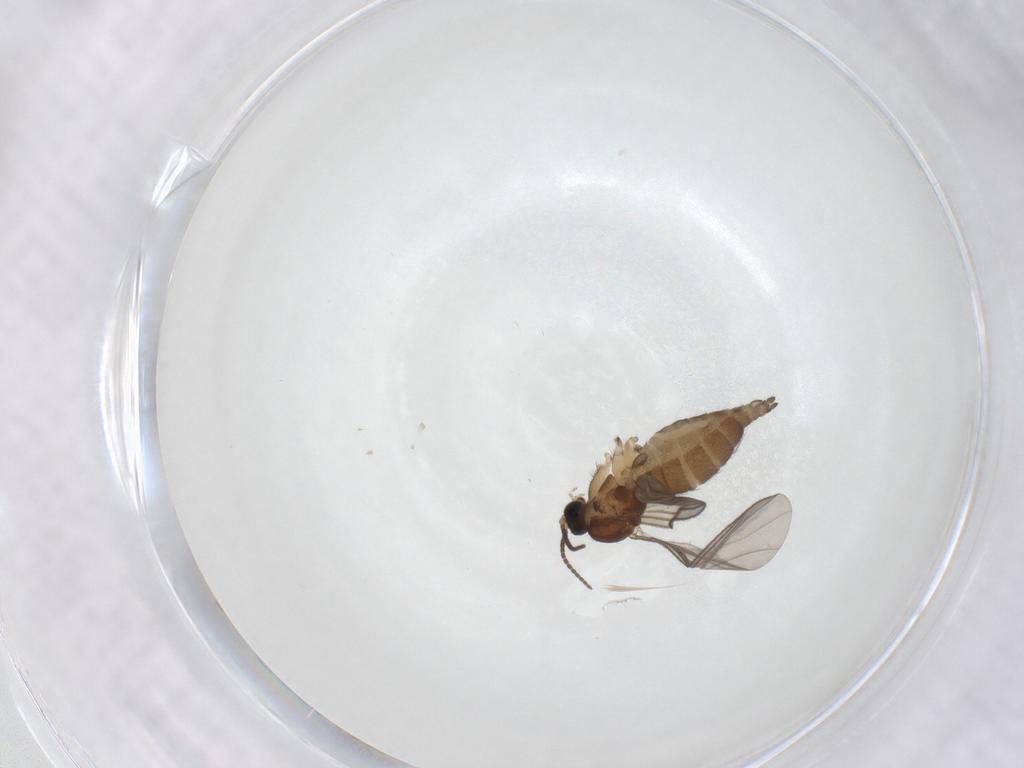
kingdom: Animalia
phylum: Arthropoda
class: Insecta
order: Diptera
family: Sciaridae
